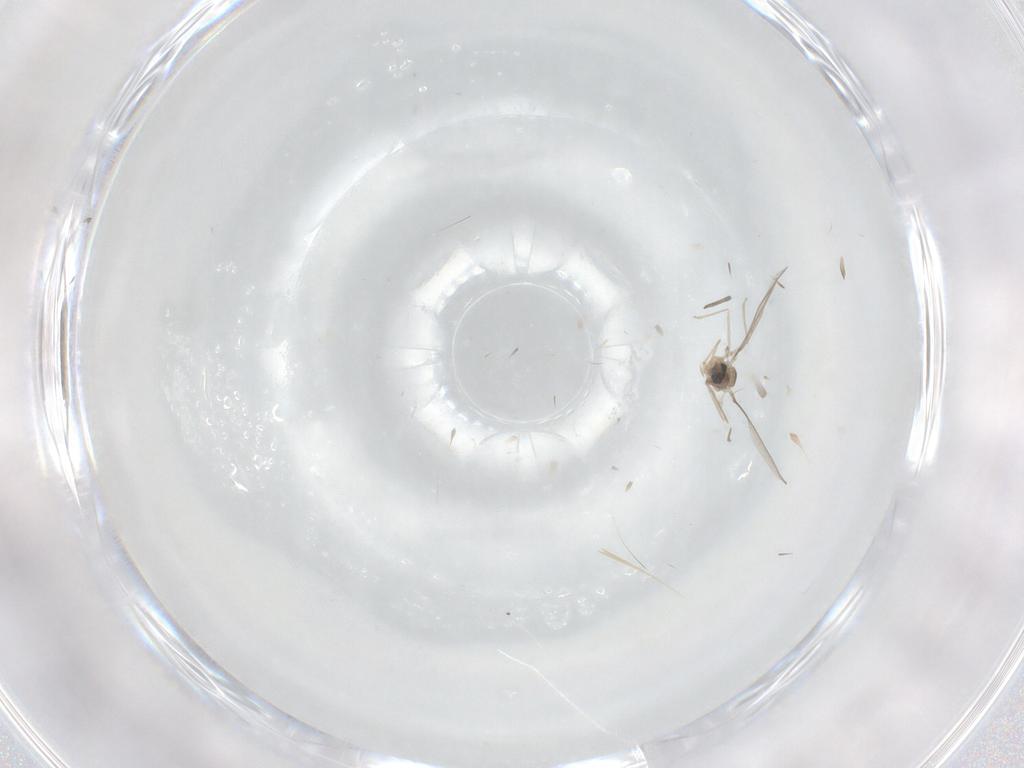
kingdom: Animalia
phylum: Arthropoda
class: Insecta
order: Diptera
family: Cecidomyiidae
